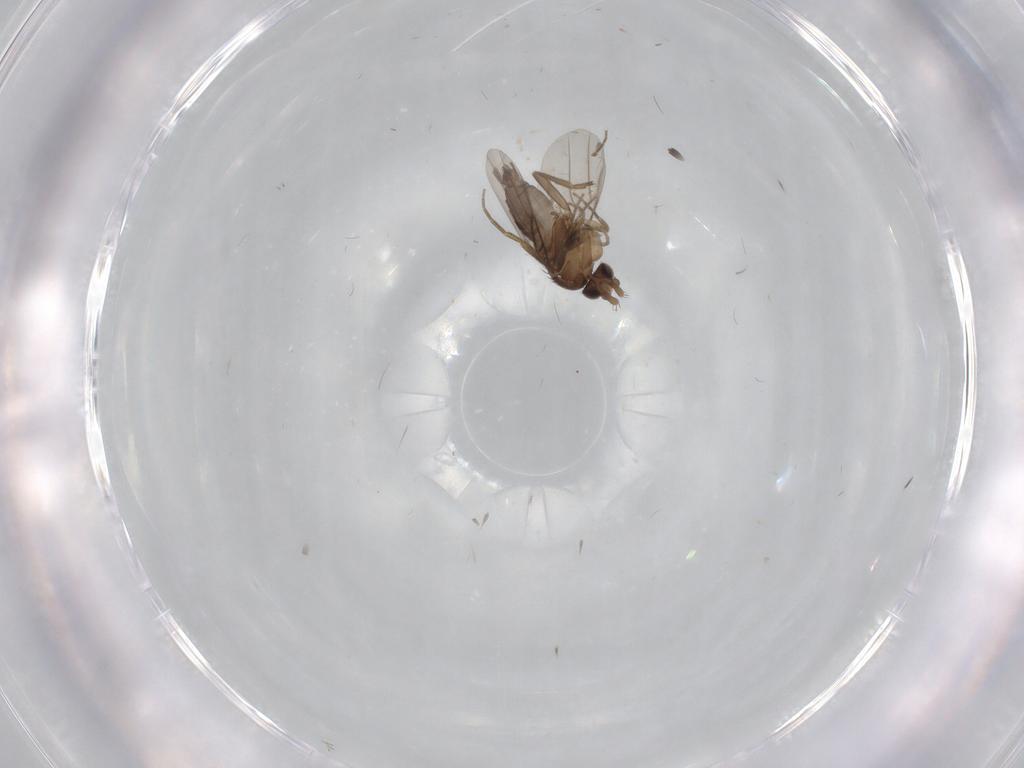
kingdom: Animalia
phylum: Arthropoda
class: Insecta
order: Diptera
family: Phoridae
